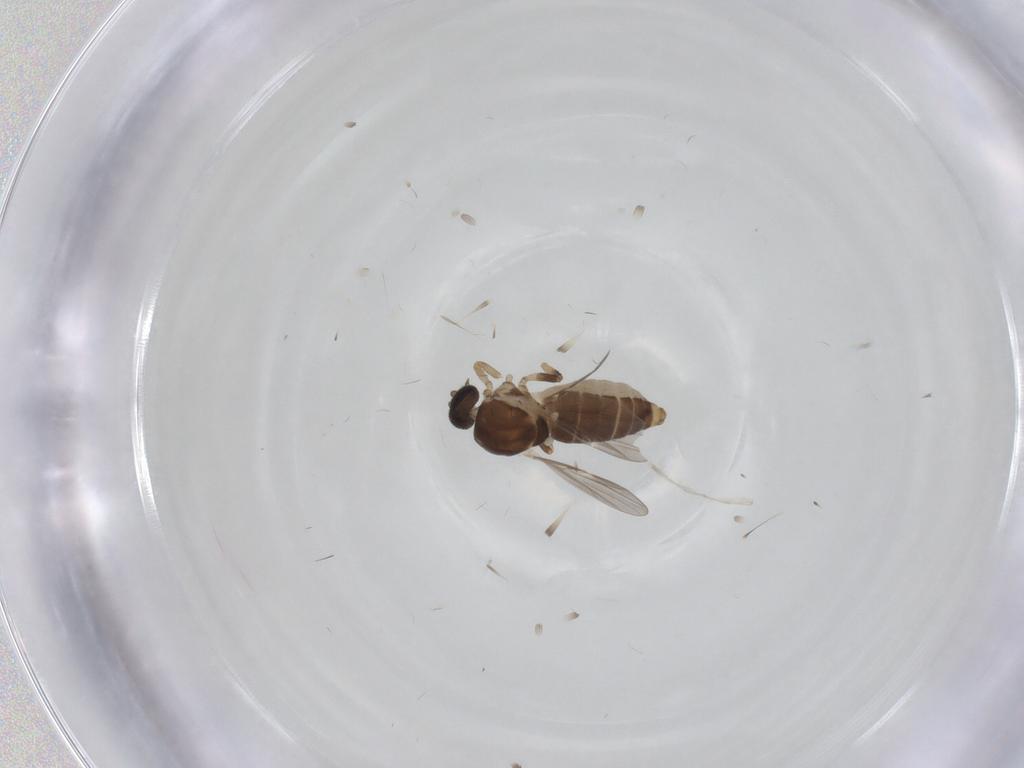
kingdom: Animalia
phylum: Arthropoda
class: Insecta
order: Diptera
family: Ceratopogonidae
